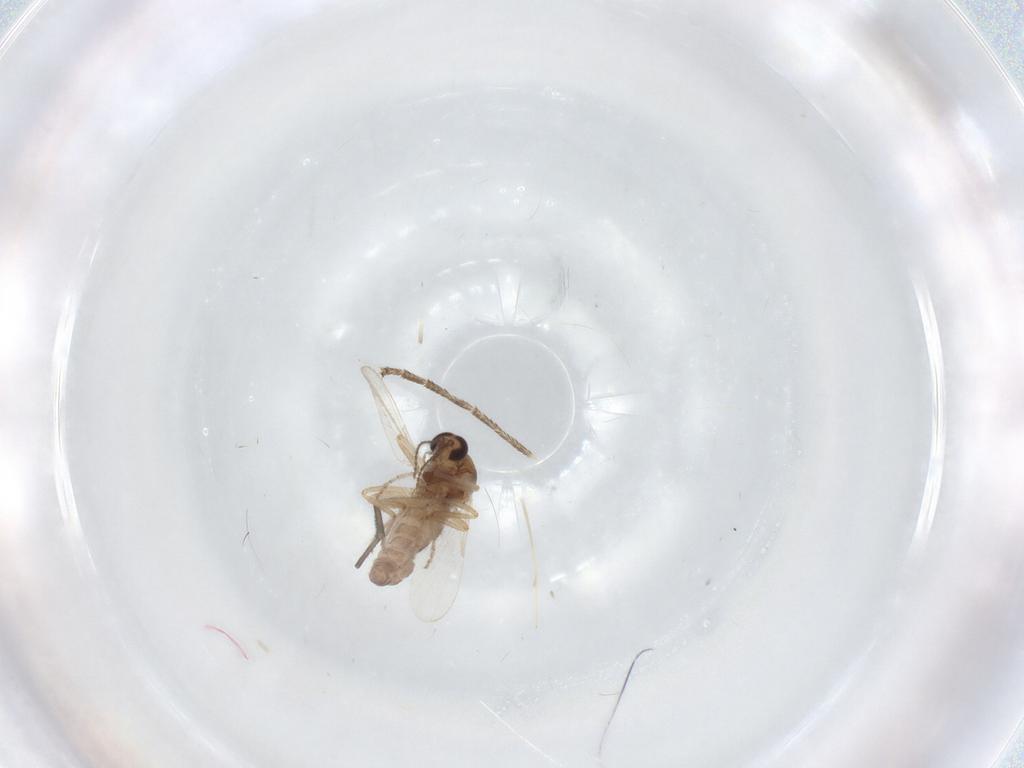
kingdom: Animalia
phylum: Arthropoda
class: Insecta
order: Diptera
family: Ceratopogonidae
